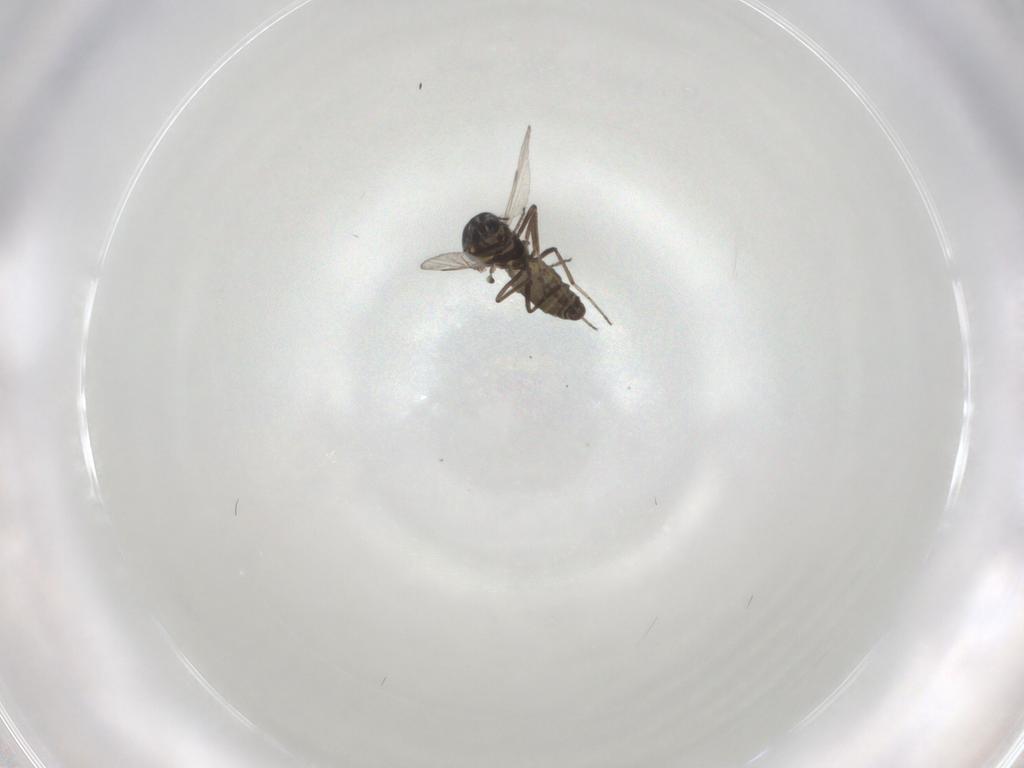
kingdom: Animalia
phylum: Arthropoda
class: Insecta
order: Diptera
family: Ceratopogonidae
